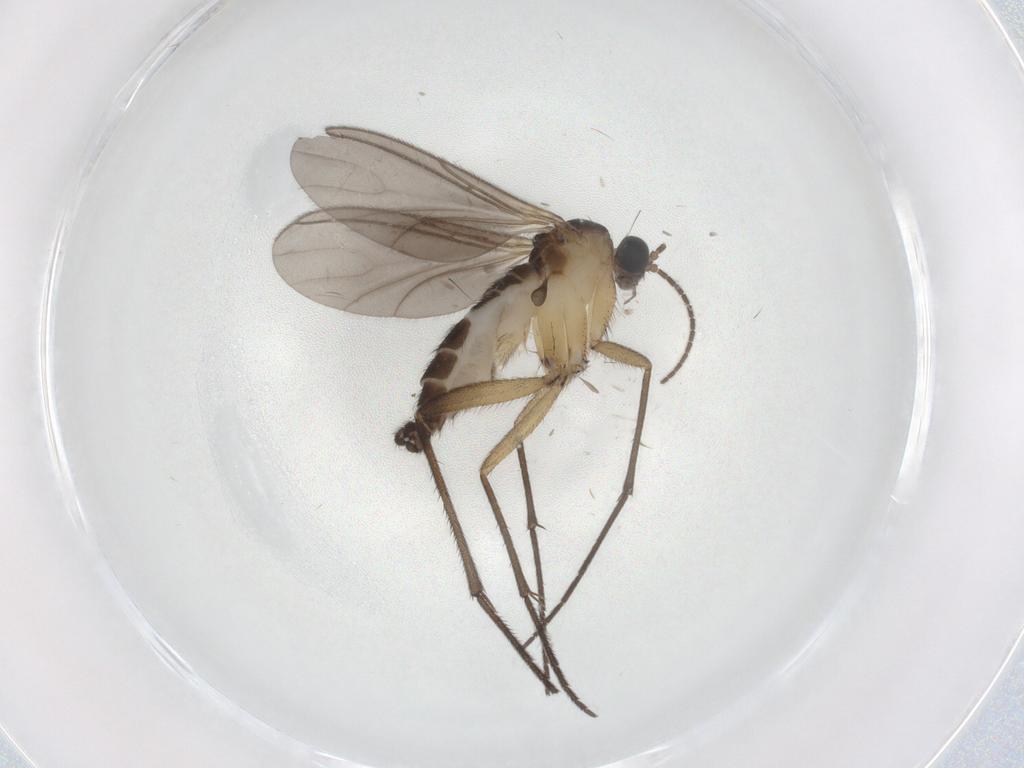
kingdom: Animalia
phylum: Arthropoda
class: Insecta
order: Diptera
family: Sciaridae
